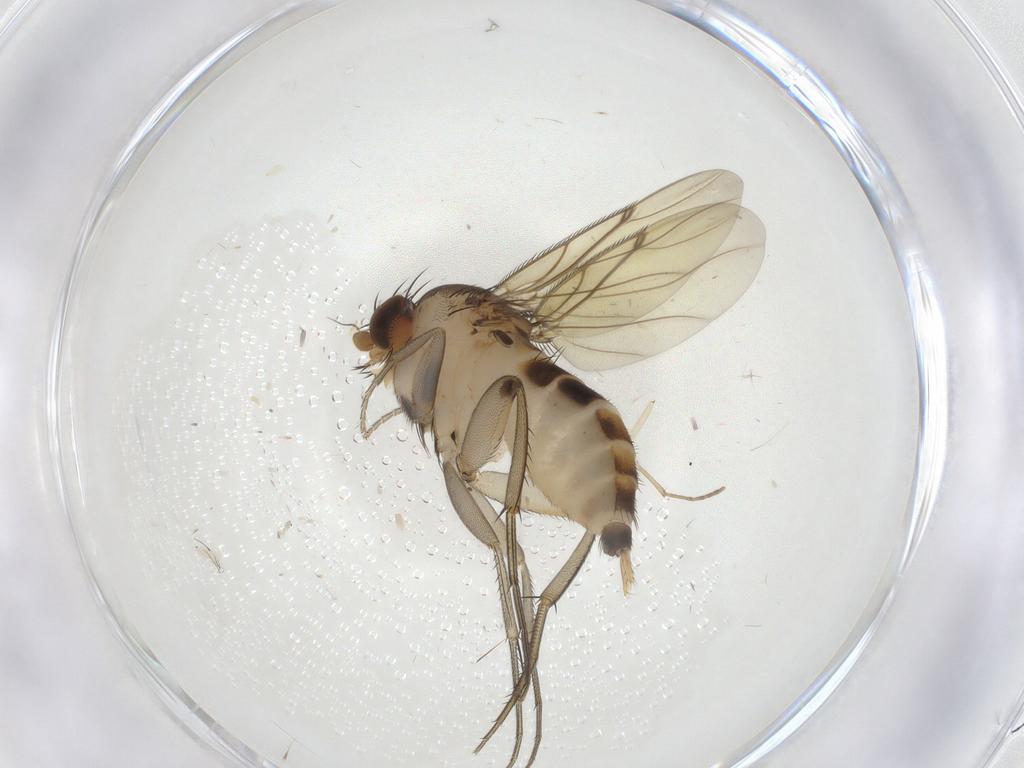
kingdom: Animalia
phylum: Arthropoda
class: Insecta
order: Diptera
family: Phoridae
